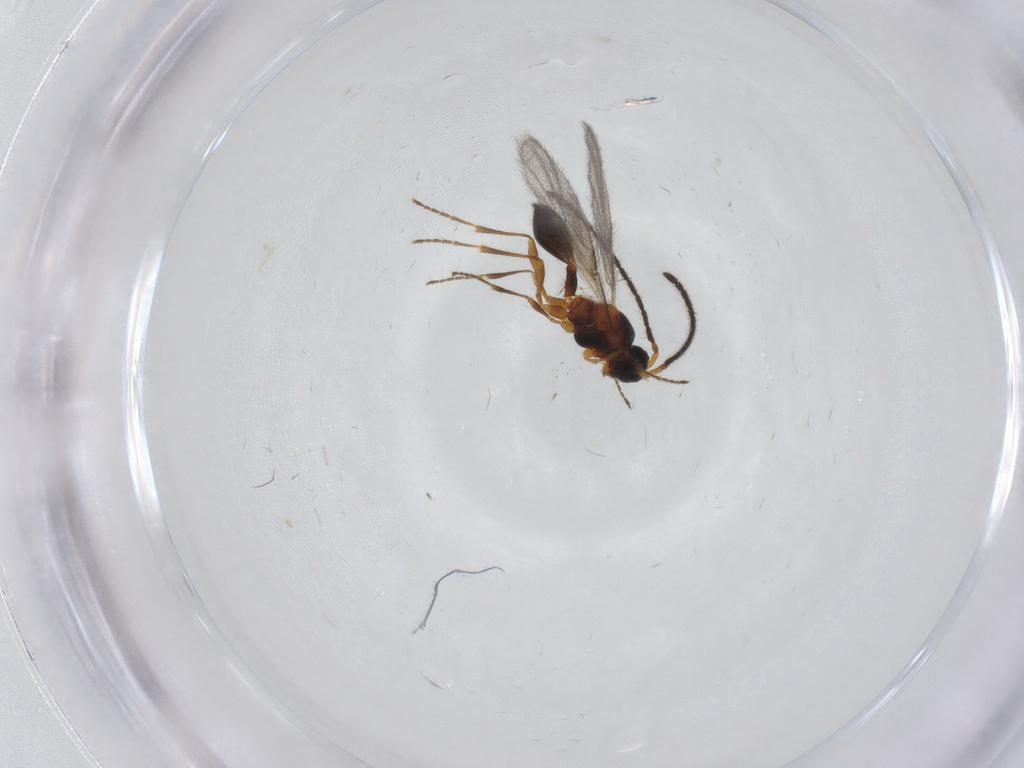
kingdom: Animalia
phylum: Arthropoda
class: Insecta
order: Hymenoptera
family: Diapriidae
